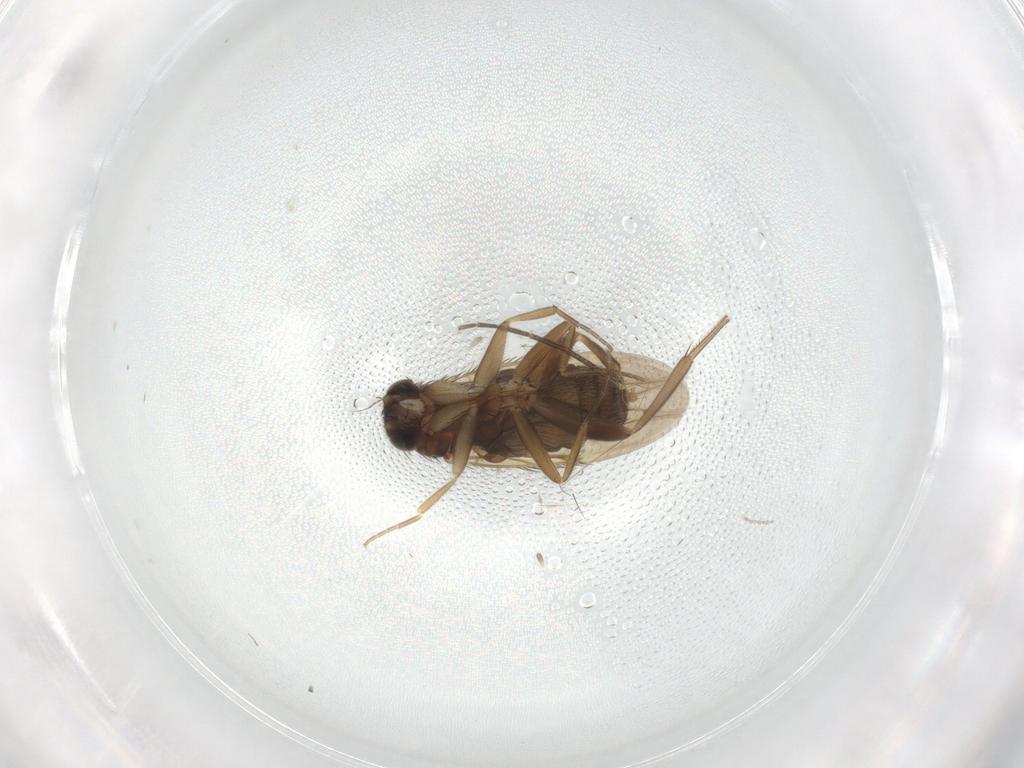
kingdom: Animalia
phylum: Arthropoda
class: Insecta
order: Diptera
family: Phoridae
